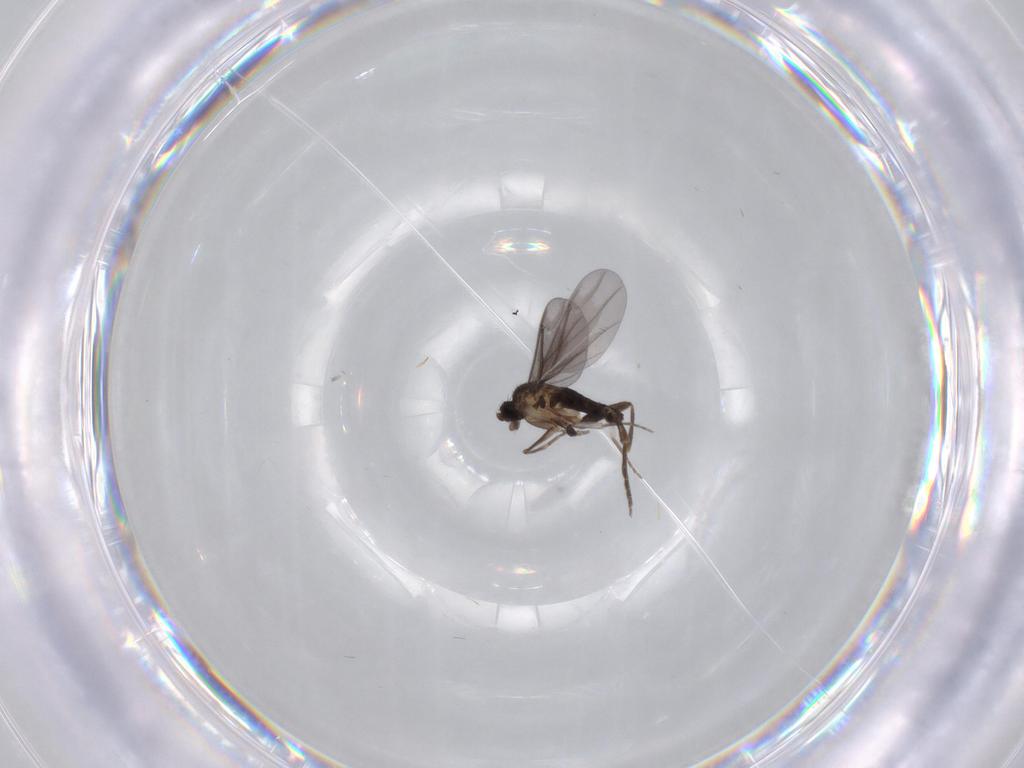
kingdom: Animalia
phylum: Arthropoda
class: Insecta
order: Diptera
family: Phoridae
